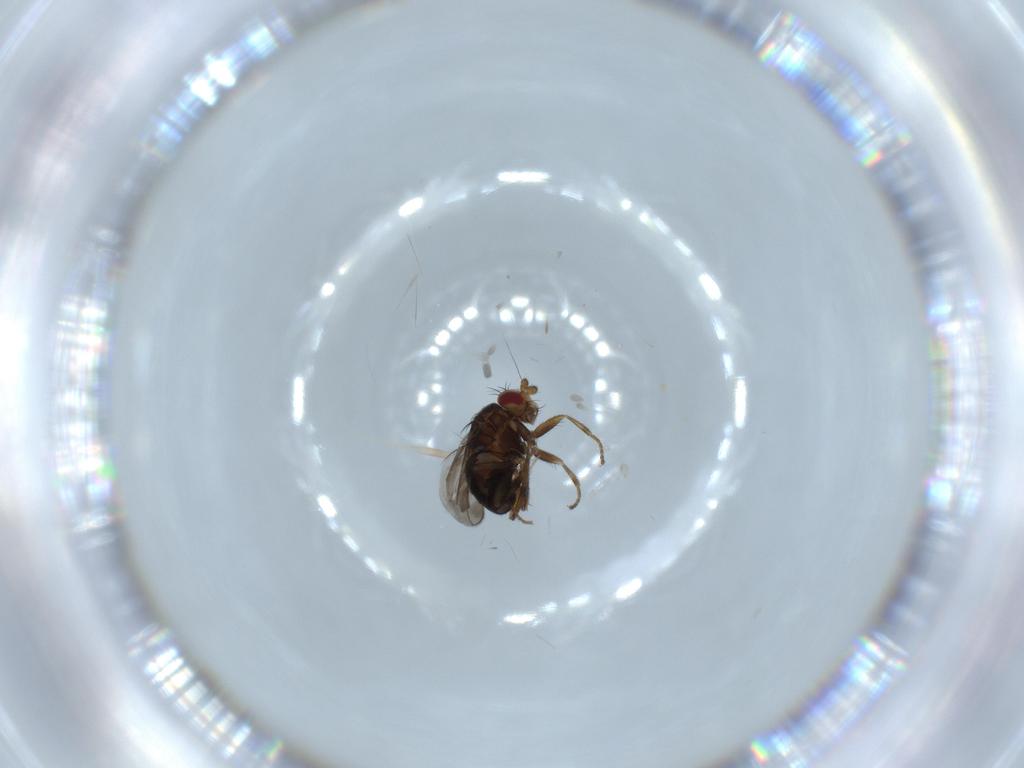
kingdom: Animalia
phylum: Arthropoda
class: Insecta
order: Diptera
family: Sphaeroceridae
